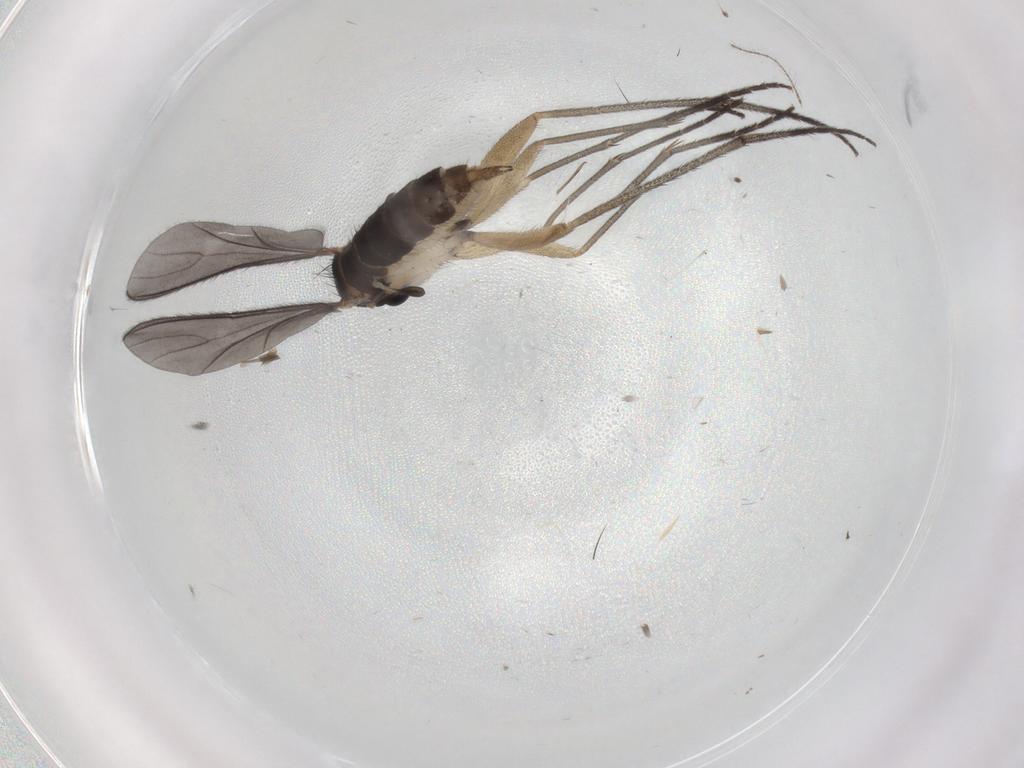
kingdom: Animalia
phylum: Arthropoda
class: Insecta
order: Diptera
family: Sciaridae
